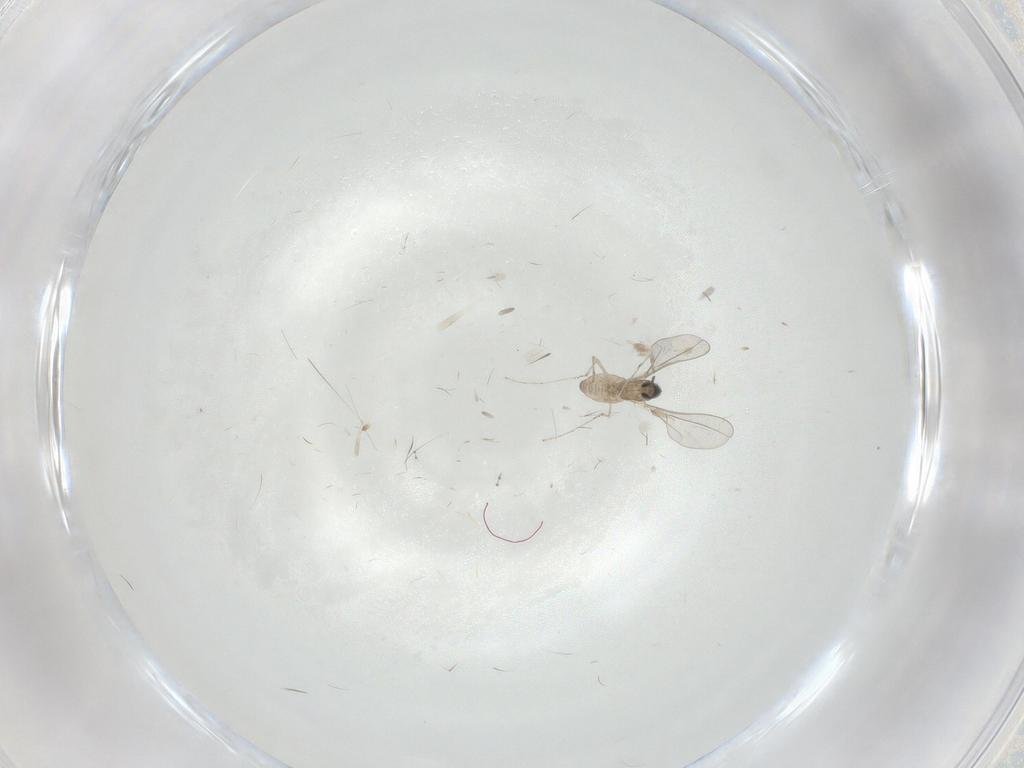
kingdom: Animalia
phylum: Arthropoda
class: Insecta
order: Diptera
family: Cecidomyiidae
